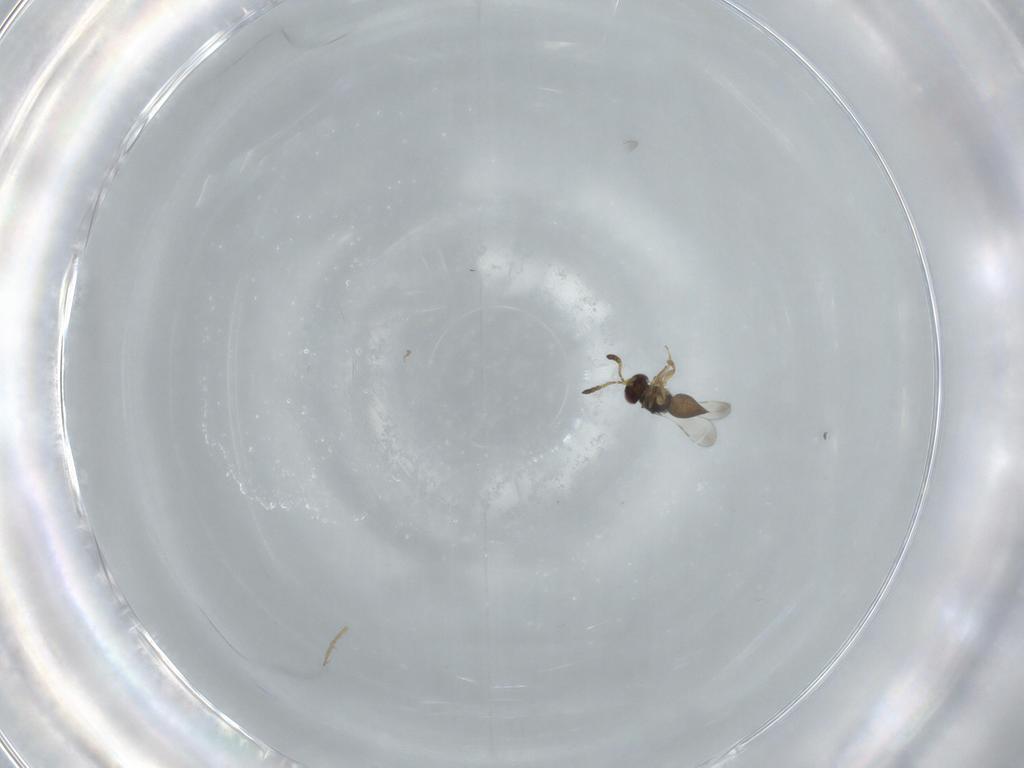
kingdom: Animalia
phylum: Arthropoda
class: Insecta
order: Hymenoptera
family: Ceraphronidae
